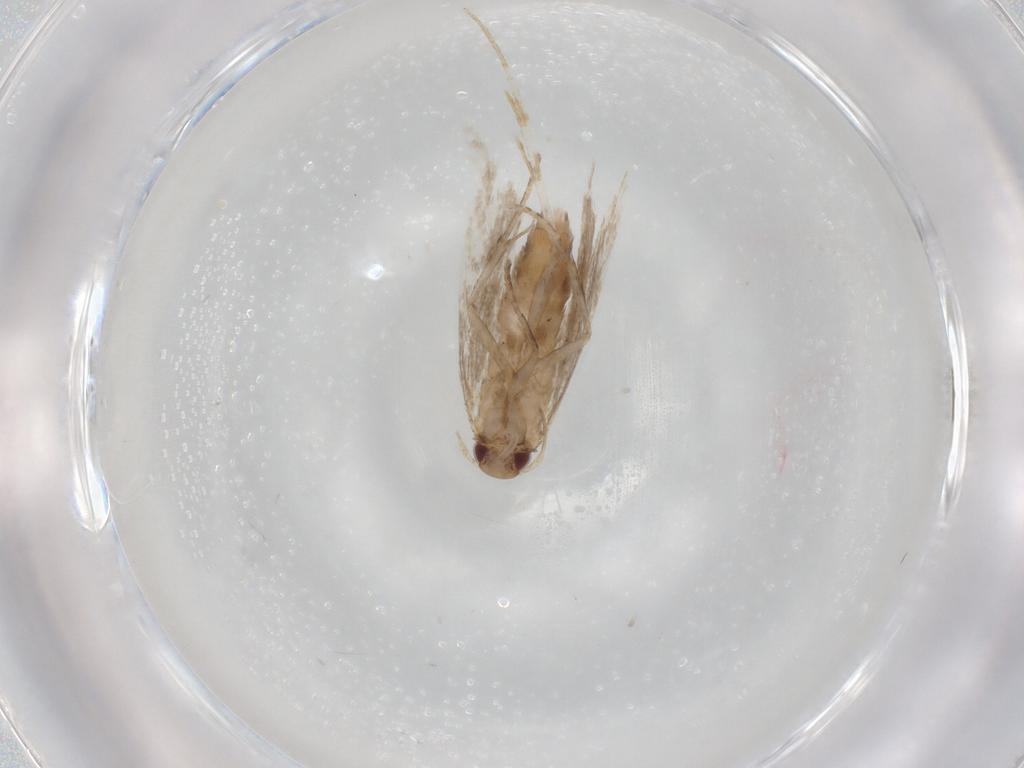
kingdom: Animalia
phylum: Arthropoda
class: Insecta
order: Lepidoptera
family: Gelechiidae
